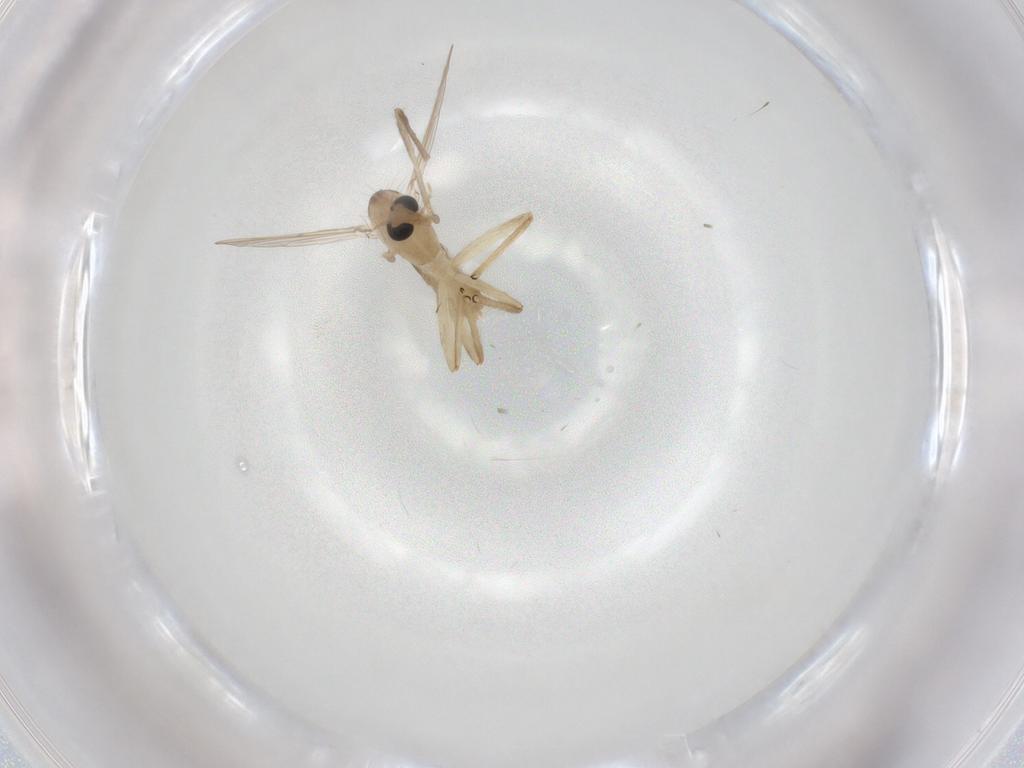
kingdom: Animalia
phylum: Arthropoda
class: Insecta
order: Diptera
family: Chironomidae
